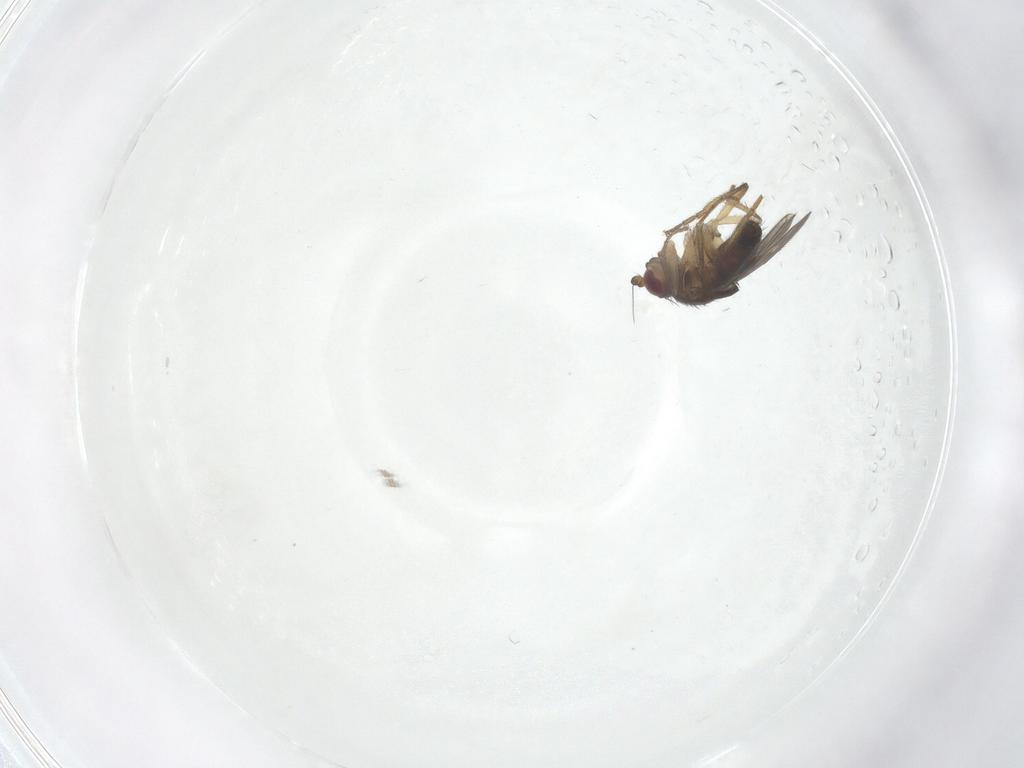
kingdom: Animalia
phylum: Arthropoda
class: Insecta
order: Diptera
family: Sphaeroceridae
